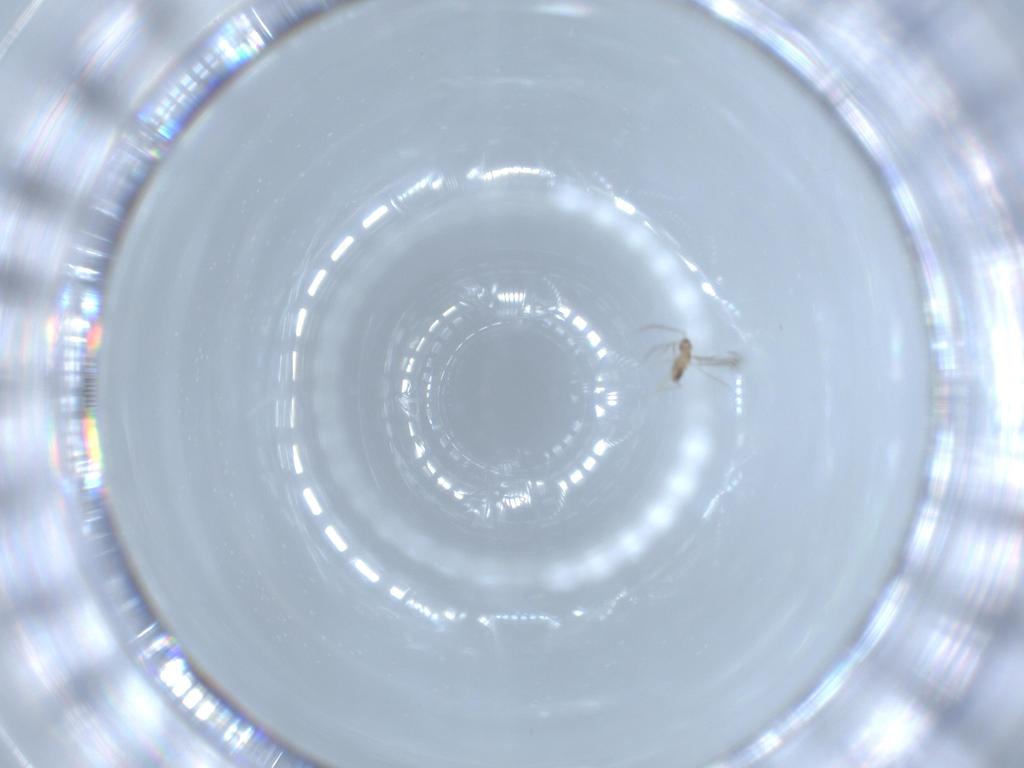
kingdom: Animalia
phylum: Arthropoda
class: Insecta
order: Hymenoptera
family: Mymaridae
